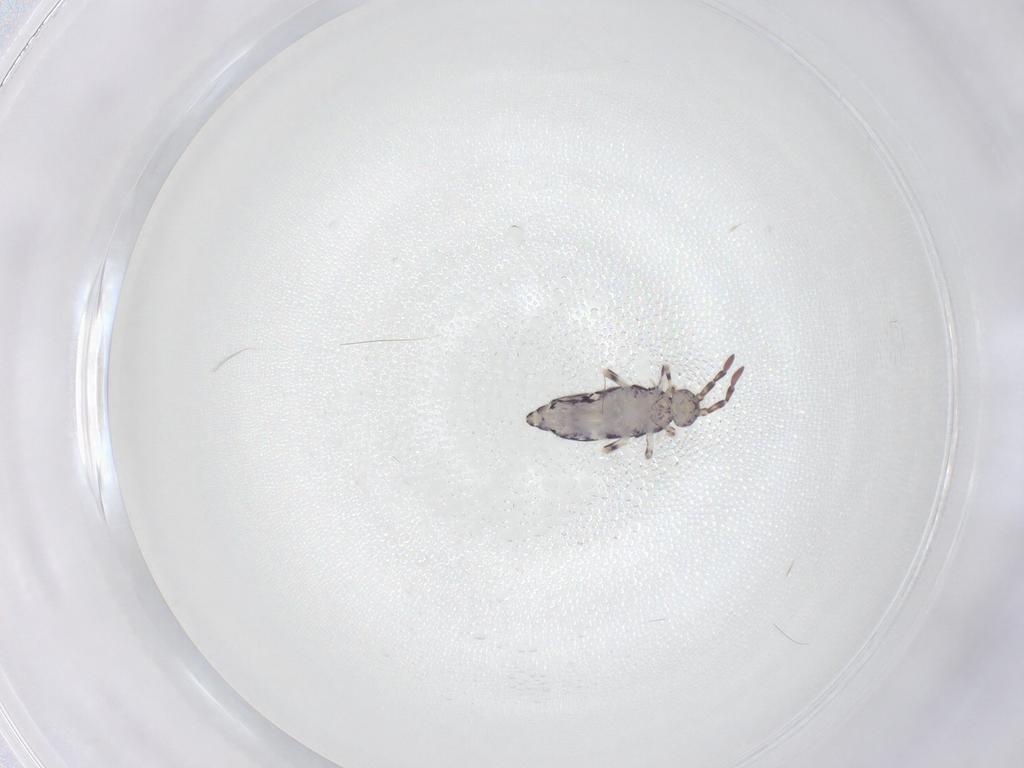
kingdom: Animalia
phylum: Arthropoda
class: Collembola
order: Entomobryomorpha
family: Entomobryidae
